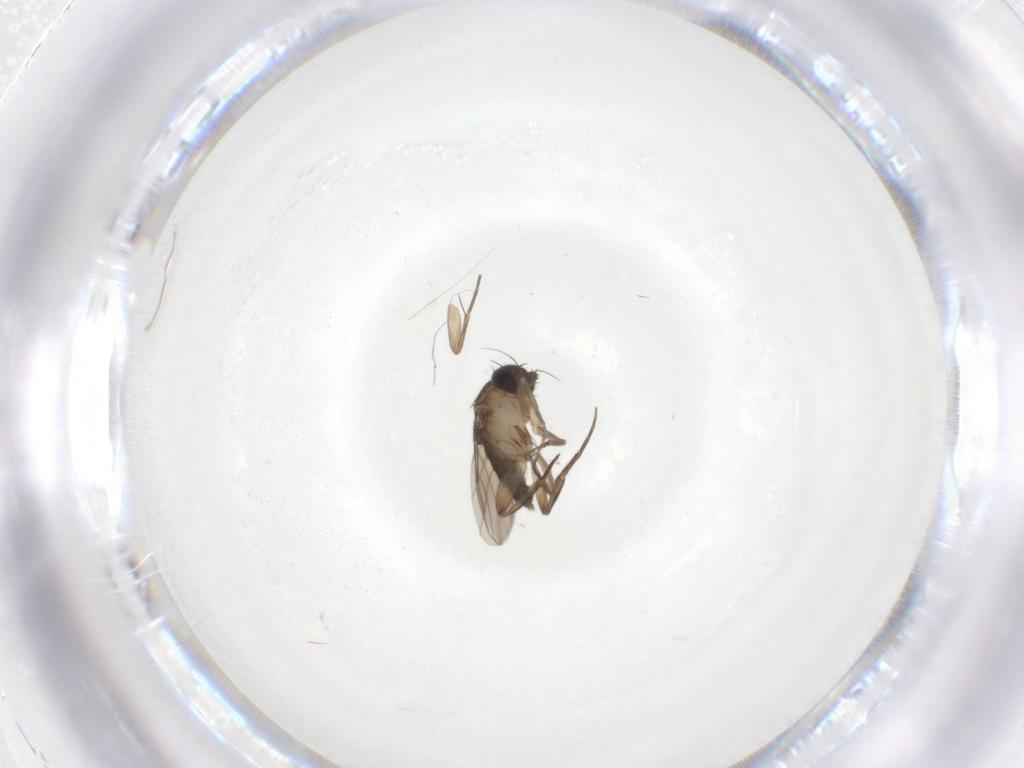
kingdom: Animalia
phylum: Arthropoda
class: Insecta
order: Diptera
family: Phoridae
